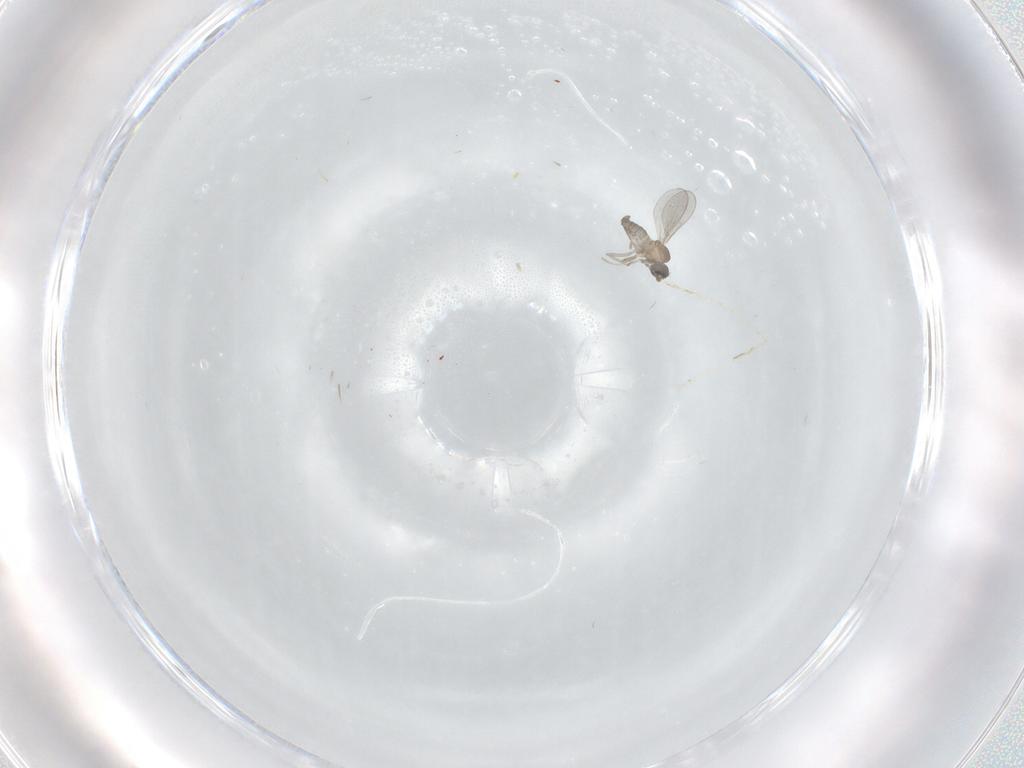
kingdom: Animalia
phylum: Arthropoda
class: Insecta
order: Diptera
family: Cecidomyiidae
